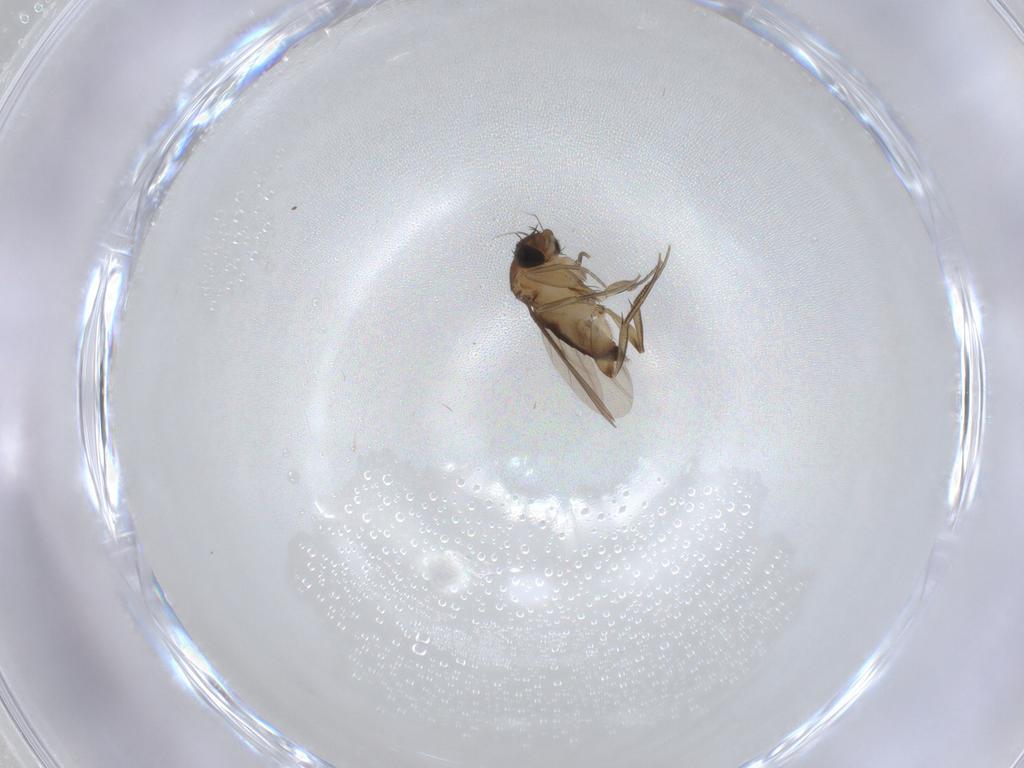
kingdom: Animalia
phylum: Arthropoda
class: Insecta
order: Diptera
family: Phoridae
